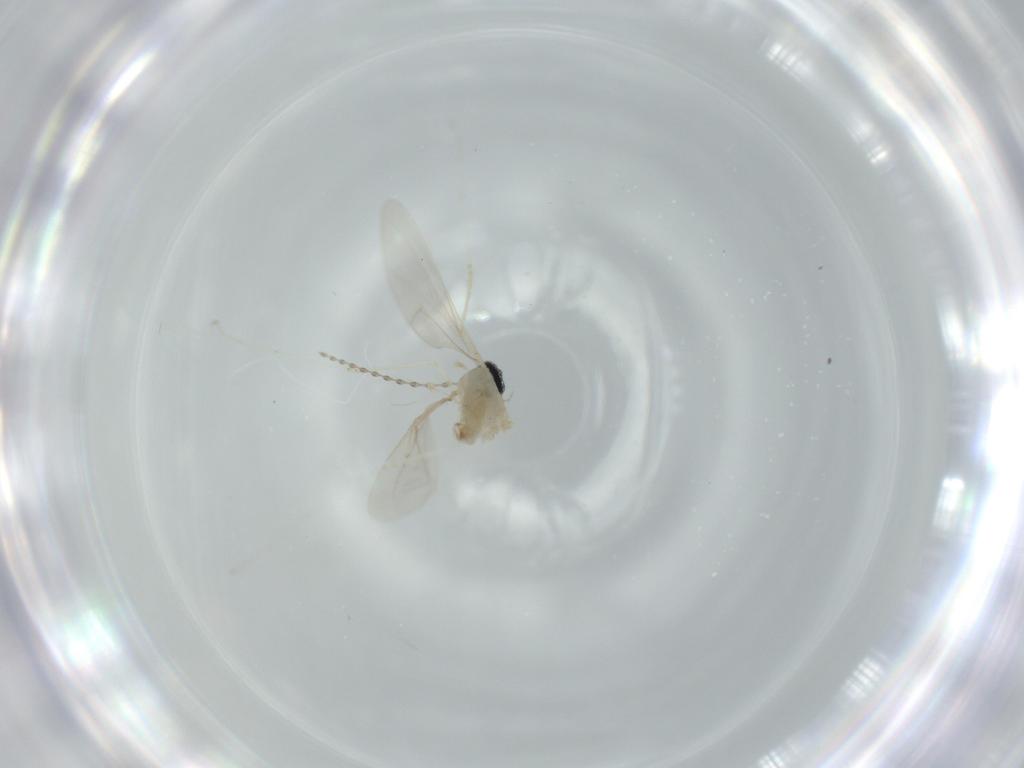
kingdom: Animalia
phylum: Arthropoda
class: Insecta
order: Diptera
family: Cecidomyiidae
